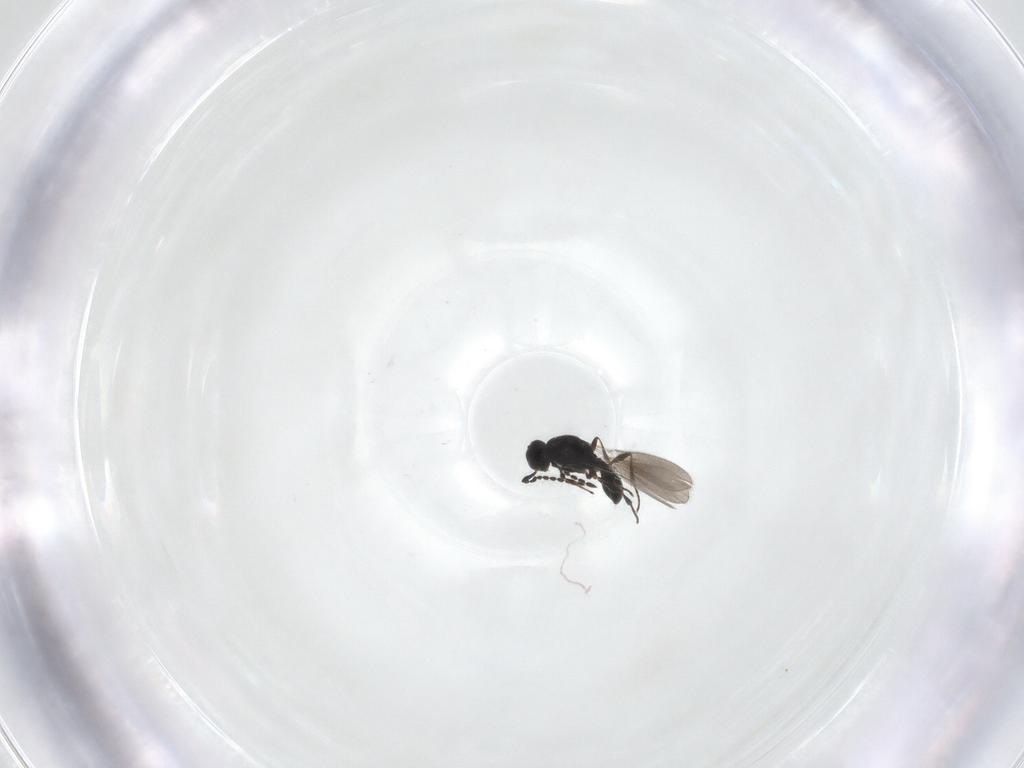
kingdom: Animalia
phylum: Arthropoda
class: Insecta
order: Hymenoptera
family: Platygastridae
